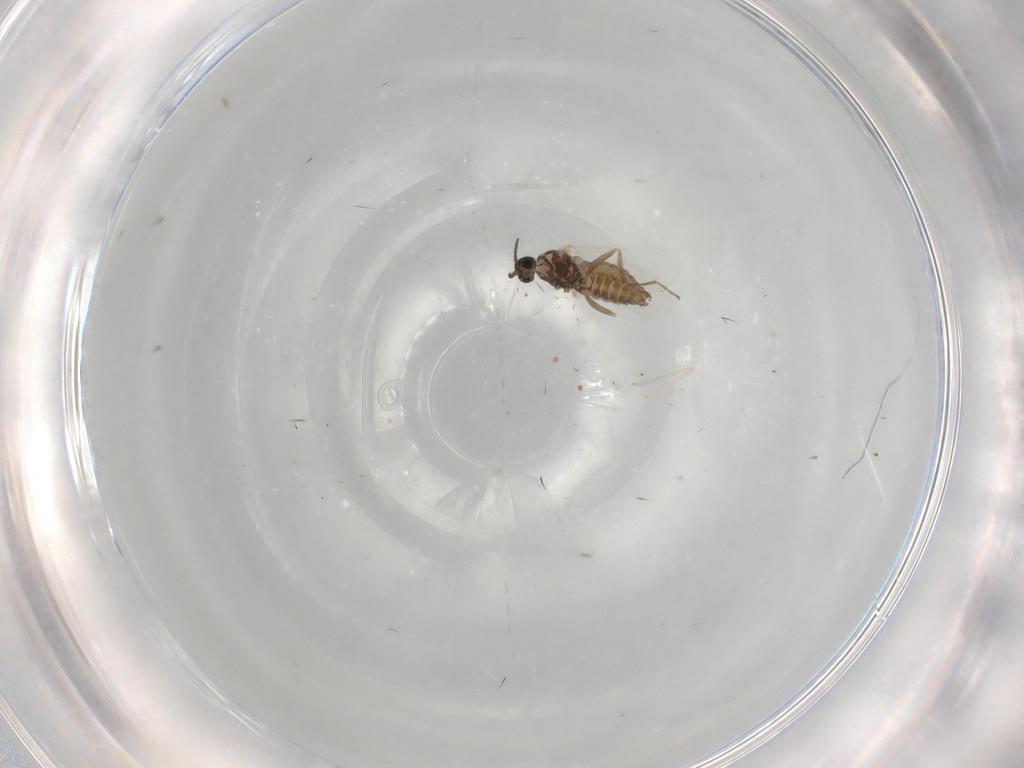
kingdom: Animalia
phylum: Arthropoda
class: Insecta
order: Diptera
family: Cecidomyiidae
